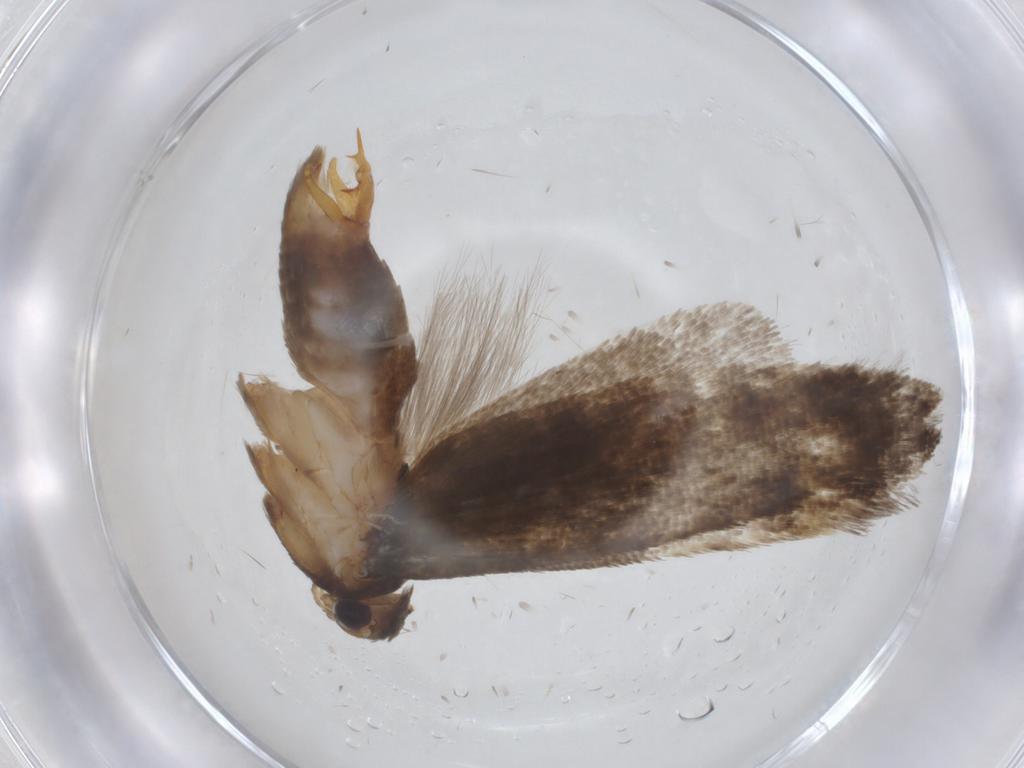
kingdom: Animalia
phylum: Arthropoda
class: Insecta
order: Lepidoptera
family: Gelechiidae
